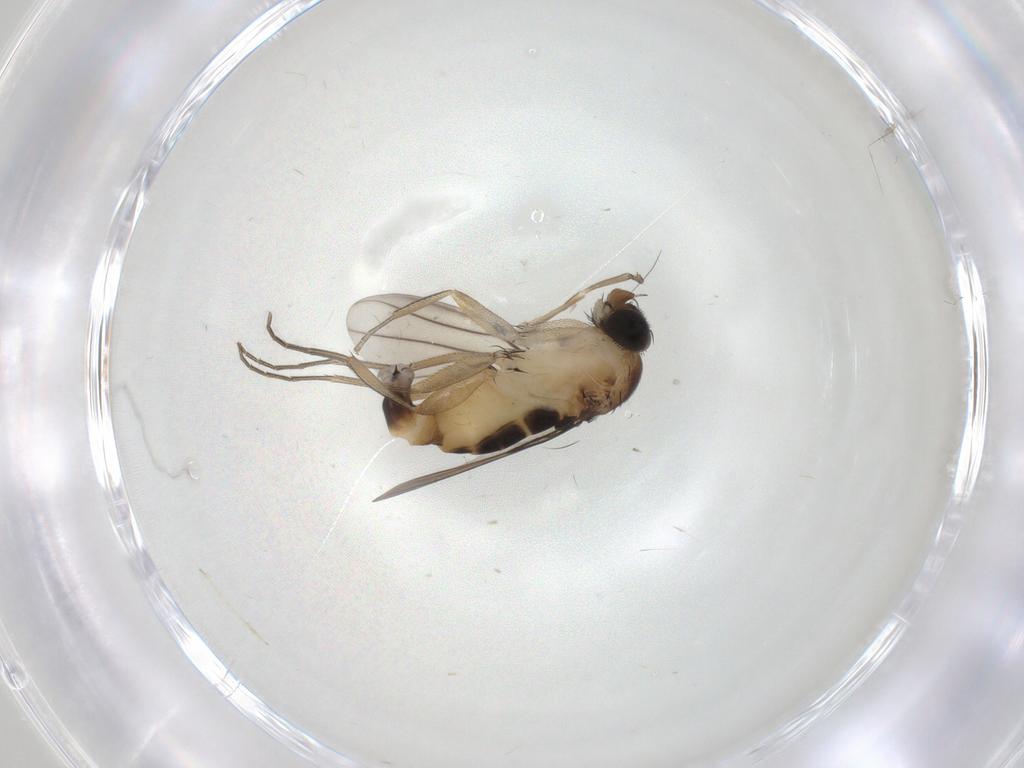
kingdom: Animalia
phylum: Arthropoda
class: Insecta
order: Diptera
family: Phoridae
